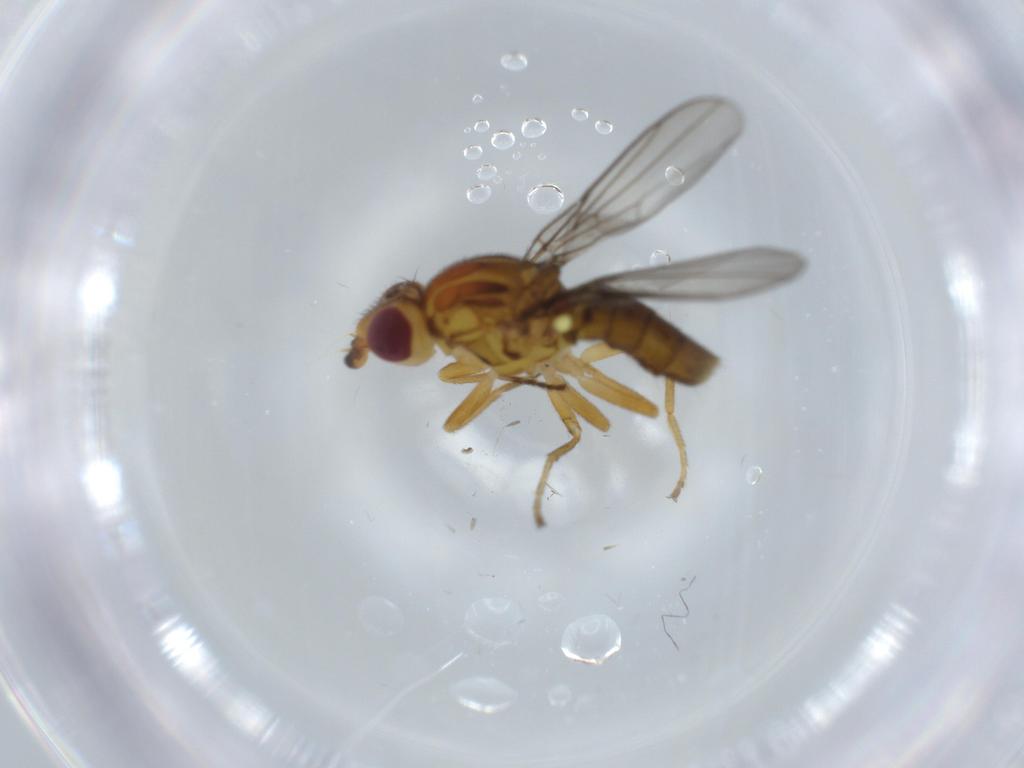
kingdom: Animalia
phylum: Arthropoda
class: Insecta
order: Diptera
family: Chloropidae
